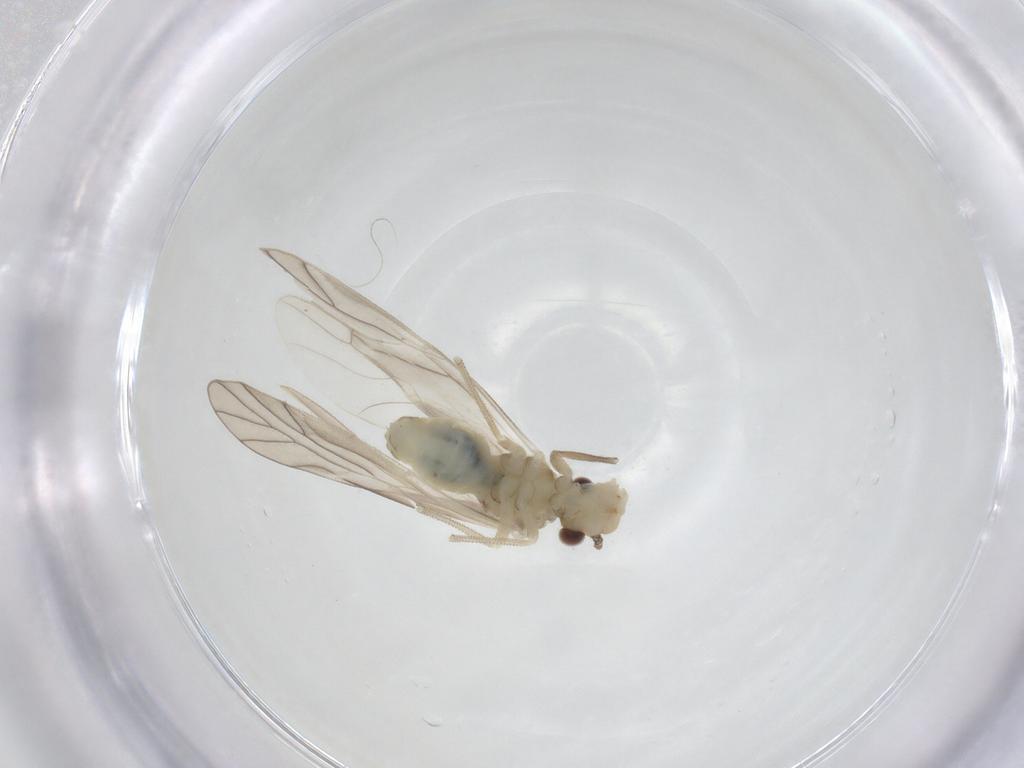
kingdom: Animalia
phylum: Arthropoda
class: Insecta
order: Psocodea
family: Caeciliusidae
